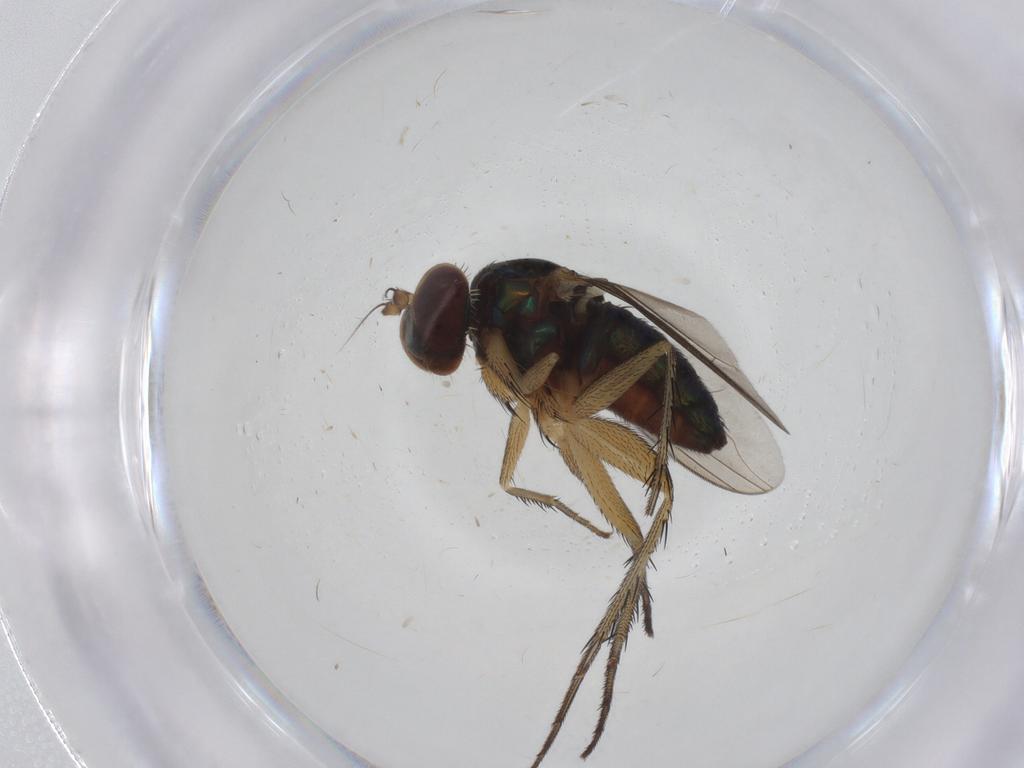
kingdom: Animalia
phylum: Arthropoda
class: Insecta
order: Diptera
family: Dolichopodidae
